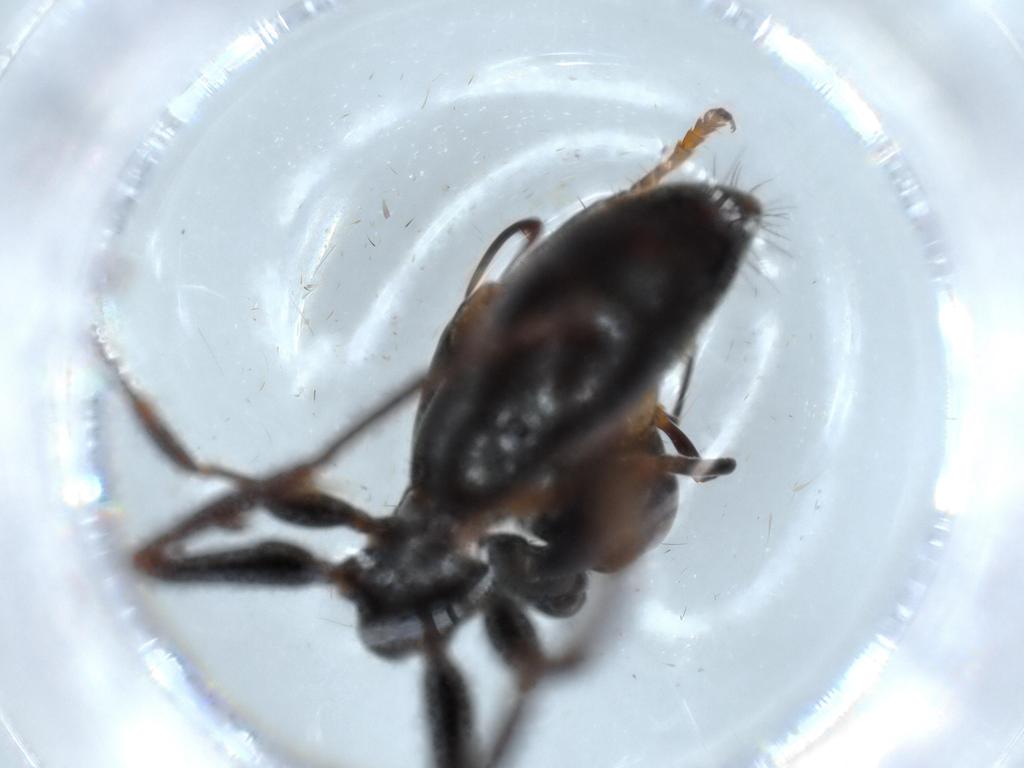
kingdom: Animalia
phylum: Arthropoda
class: Insecta
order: Hymenoptera
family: Formicidae
